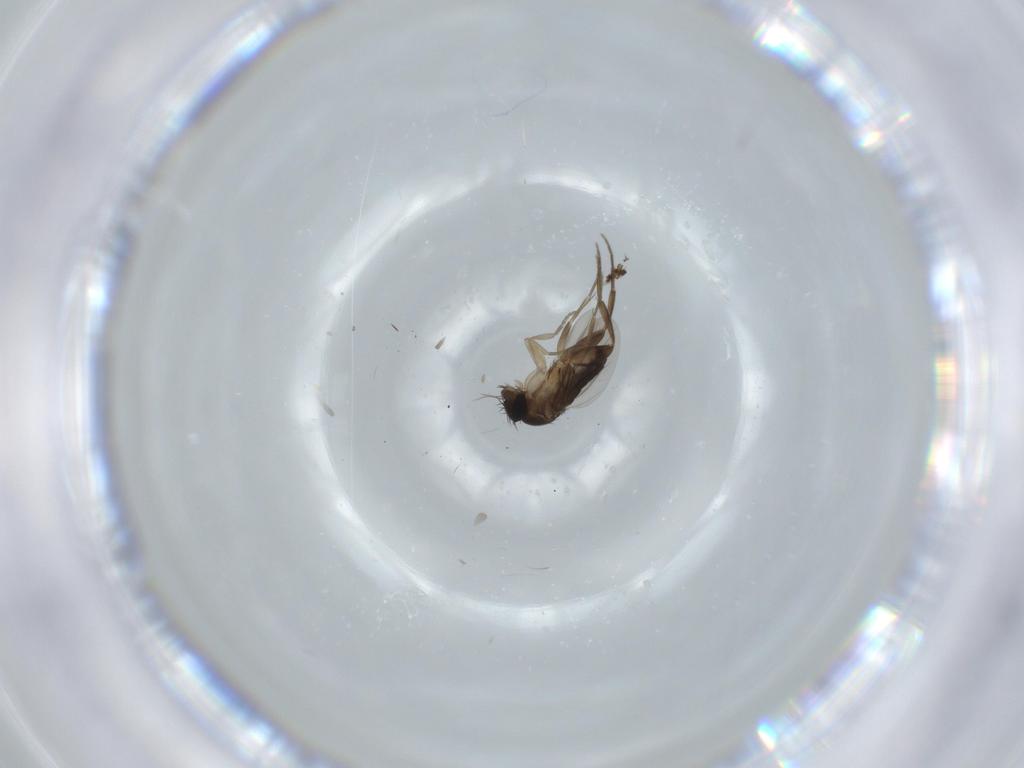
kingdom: Animalia
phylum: Arthropoda
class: Insecta
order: Diptera
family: Phoridae
